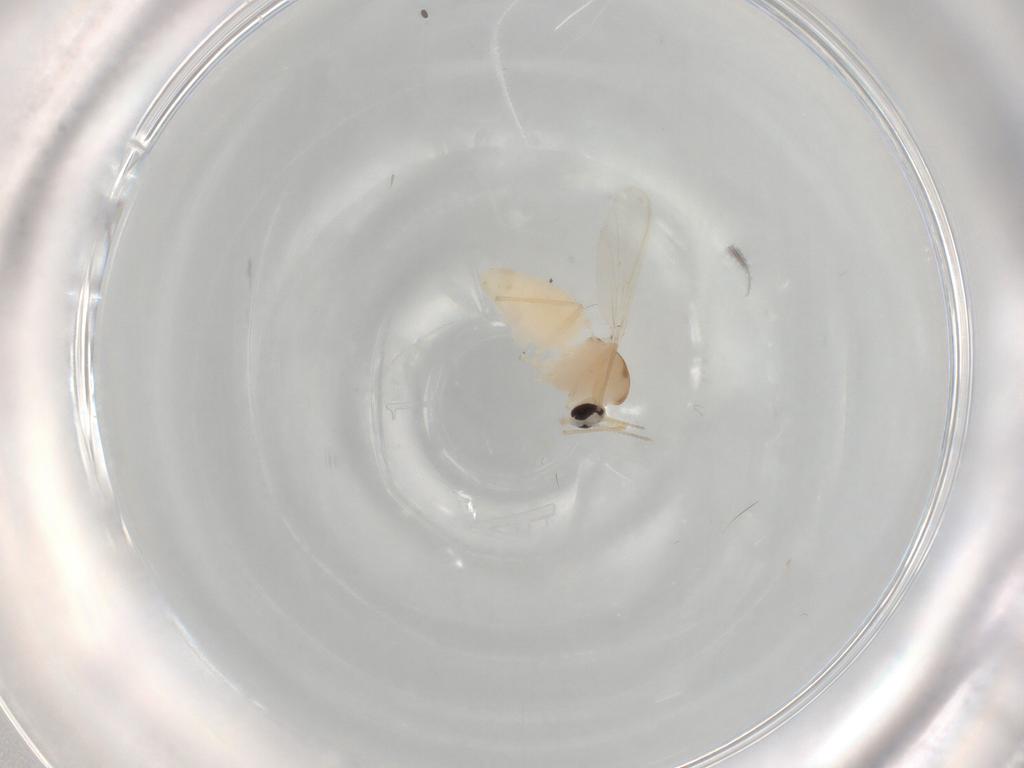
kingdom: Animalia
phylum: Arthropoda
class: Insecta
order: Diptera
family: Chironomidae
